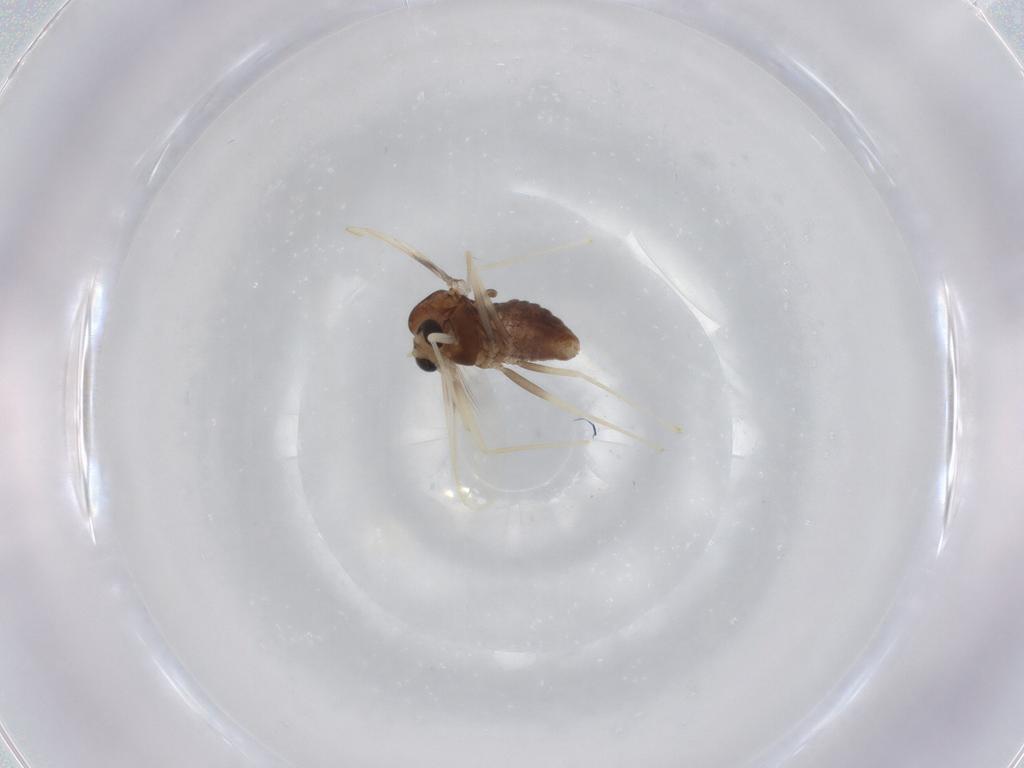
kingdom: Animalia
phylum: Arthropoda
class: Insecta
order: Diptera
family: Chironomidae
